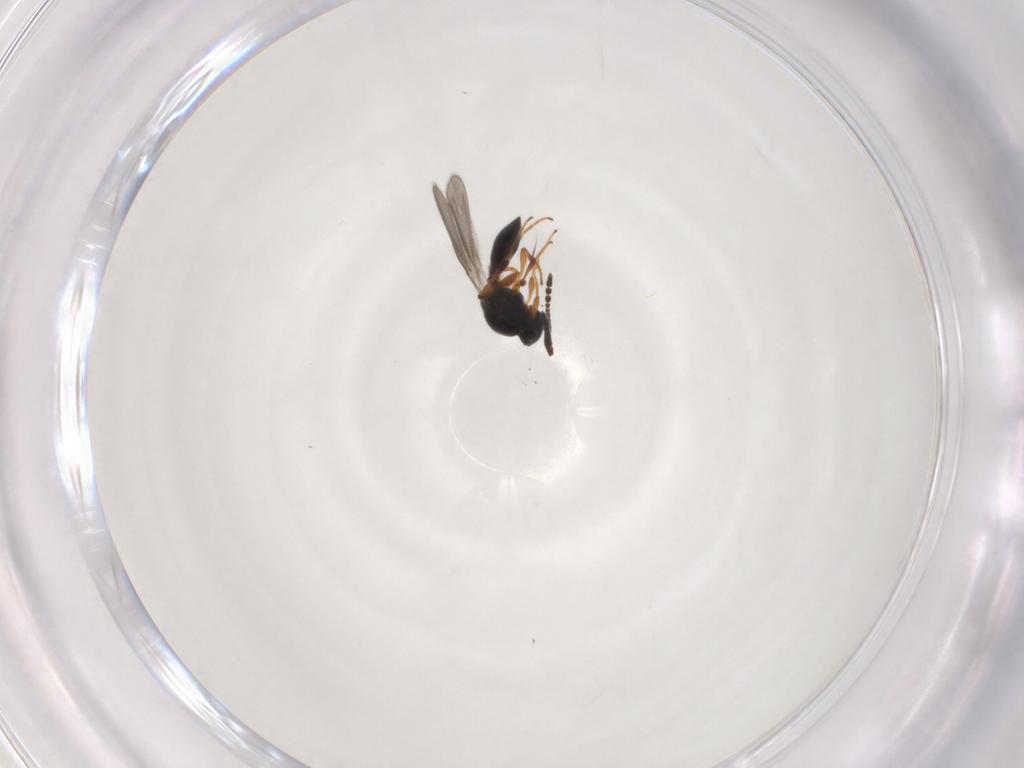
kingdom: Animalia
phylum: Arthropoda
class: Insecta
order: Hymenoptera
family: Platygastridae
